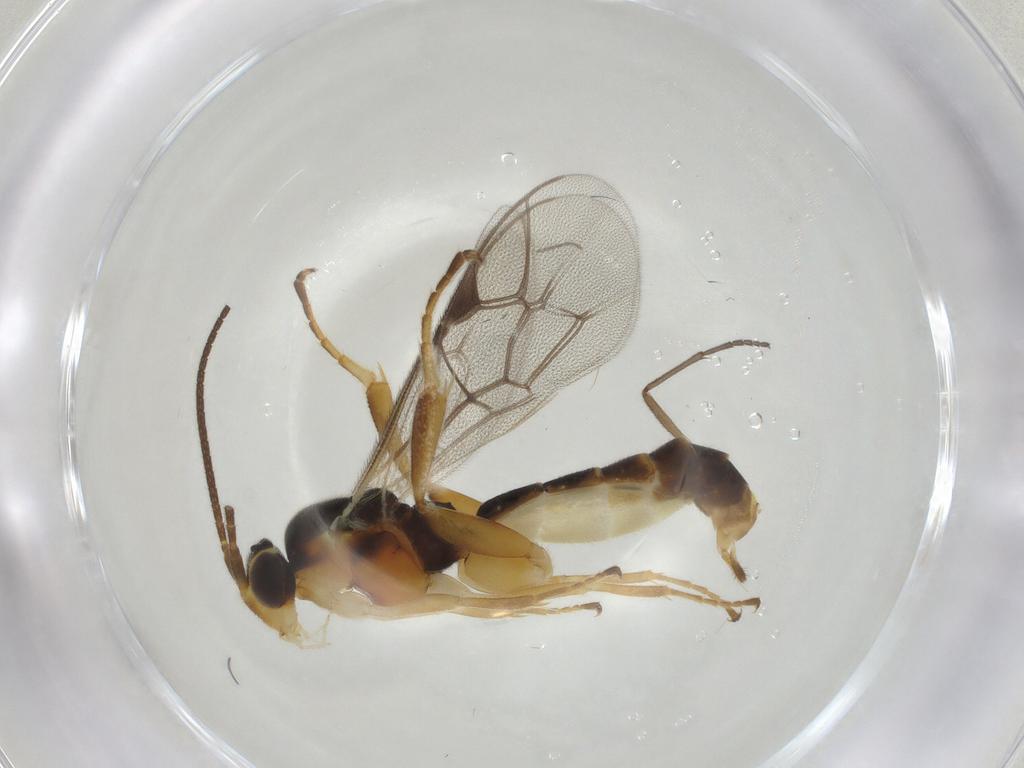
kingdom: Animalia
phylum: Arthropoda
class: Insecta
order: Hymenoptera
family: Ichneumonidae
